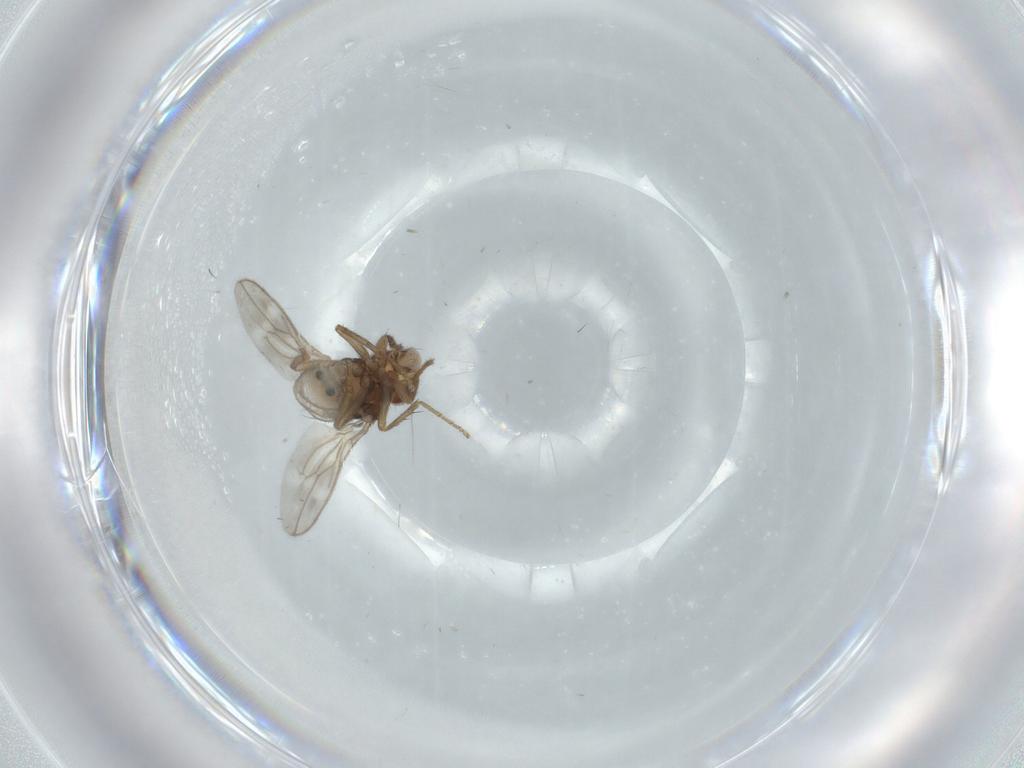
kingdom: Animalia
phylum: Arthropoda
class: Insecta
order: Diptera
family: Sphaeroceridae
